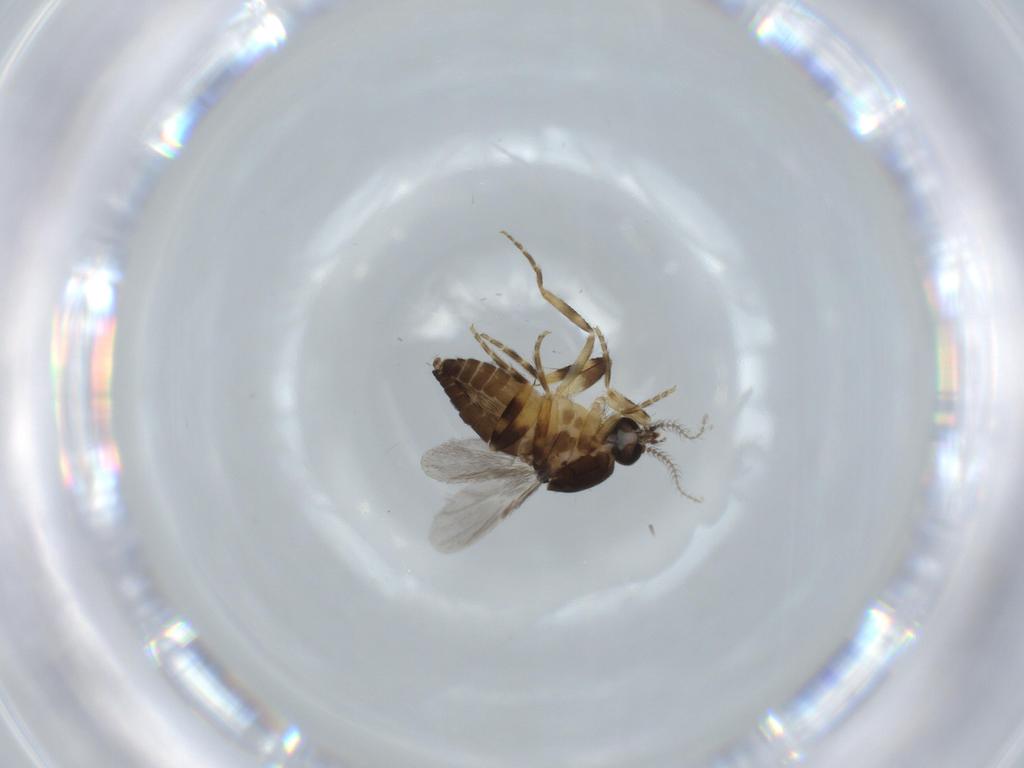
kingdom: Animalia
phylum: Arthropoda
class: Insecta
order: Diptera
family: Ceratopogonidae
